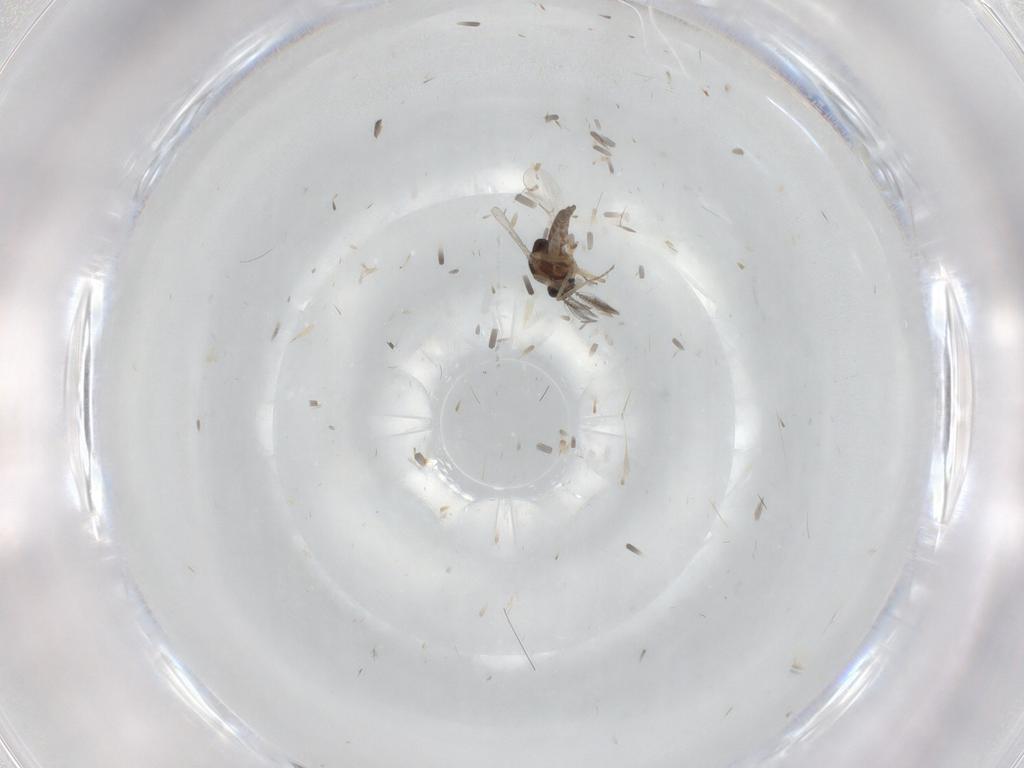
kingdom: Animalia
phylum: Arthropoda
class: Insecta
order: Diptera
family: Ceratopogonidae
